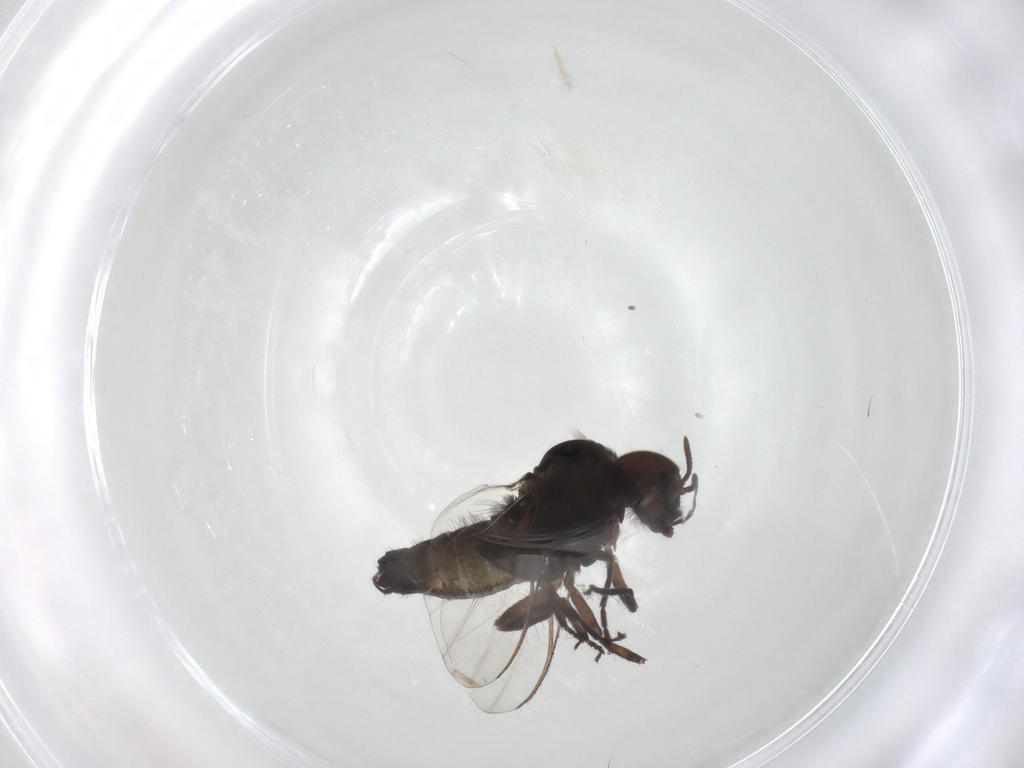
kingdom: Animalia
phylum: Arthropoda
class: Insecta
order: Diptera
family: Simuliidae
